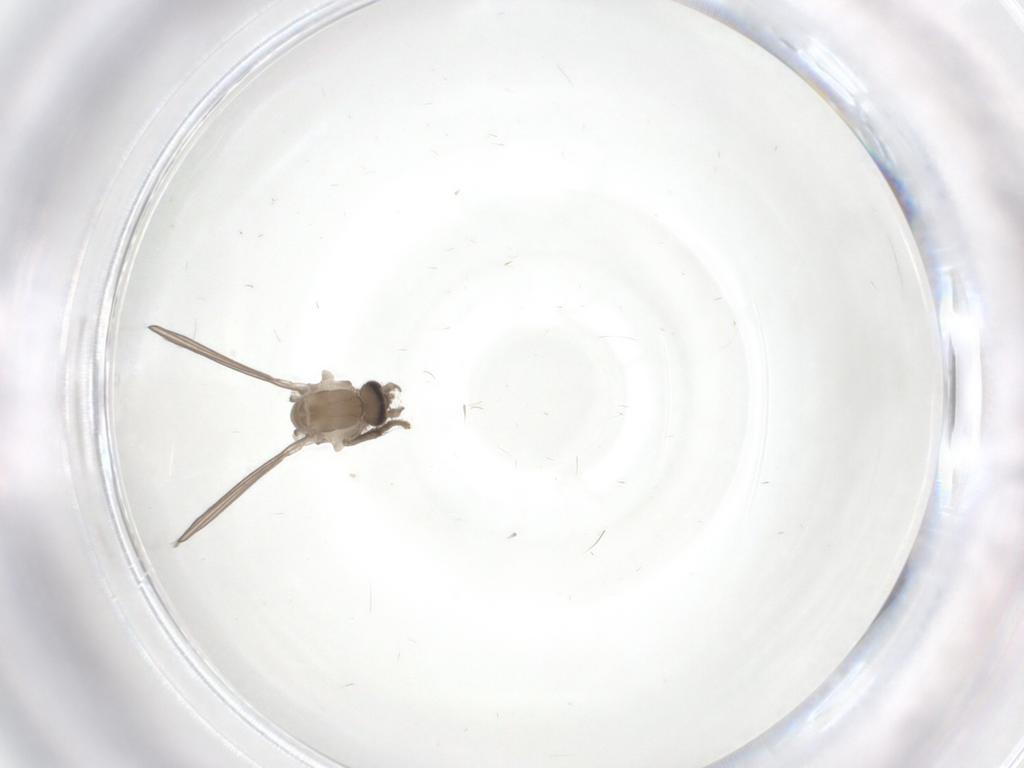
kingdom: Animalia
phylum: Arthropoda
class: Insecta
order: Diptera
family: Psychodidae
